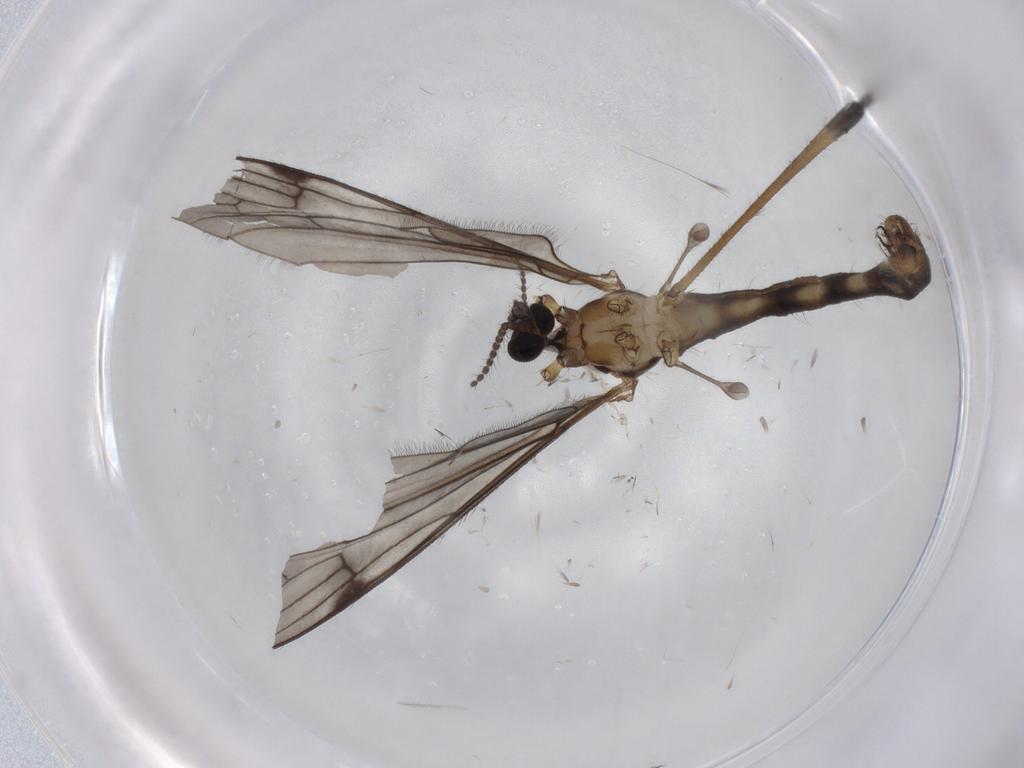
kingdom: Animalia
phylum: Arthropoda
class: Insecta
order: Diptera
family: Limoniidae
